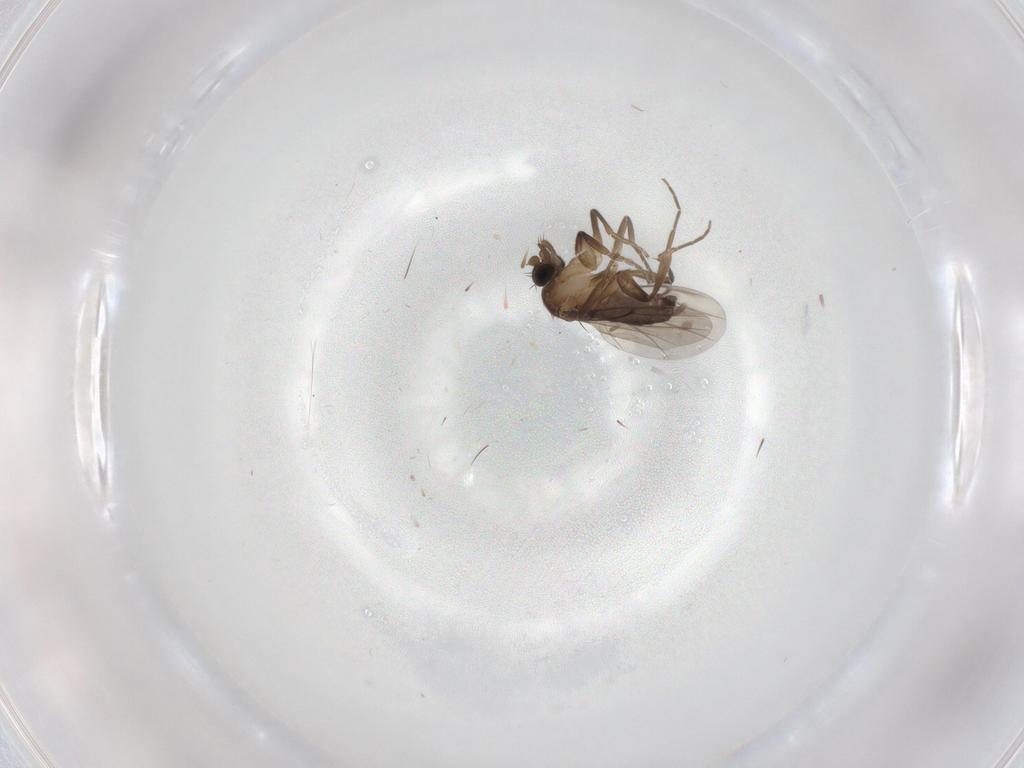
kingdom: Animalia
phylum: Arthropoda
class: Insecta
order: Diptera
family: Phoridae
